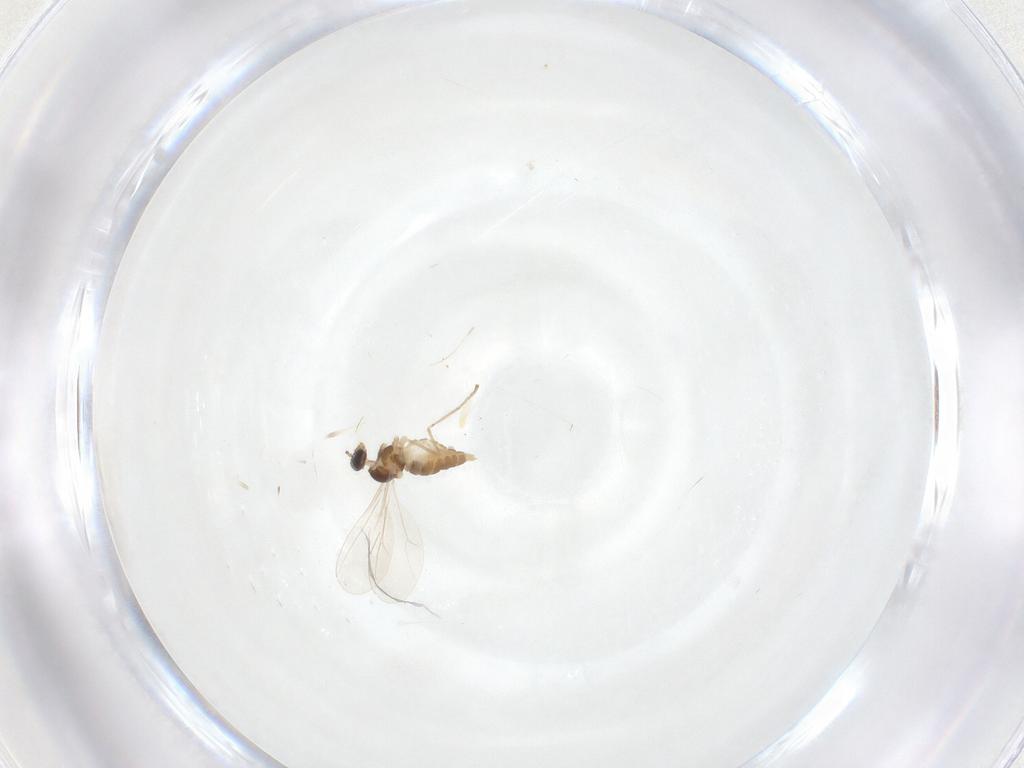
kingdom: Animalia
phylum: Arthropoda
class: Insecta
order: Diptera
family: Cecidomyiidae
